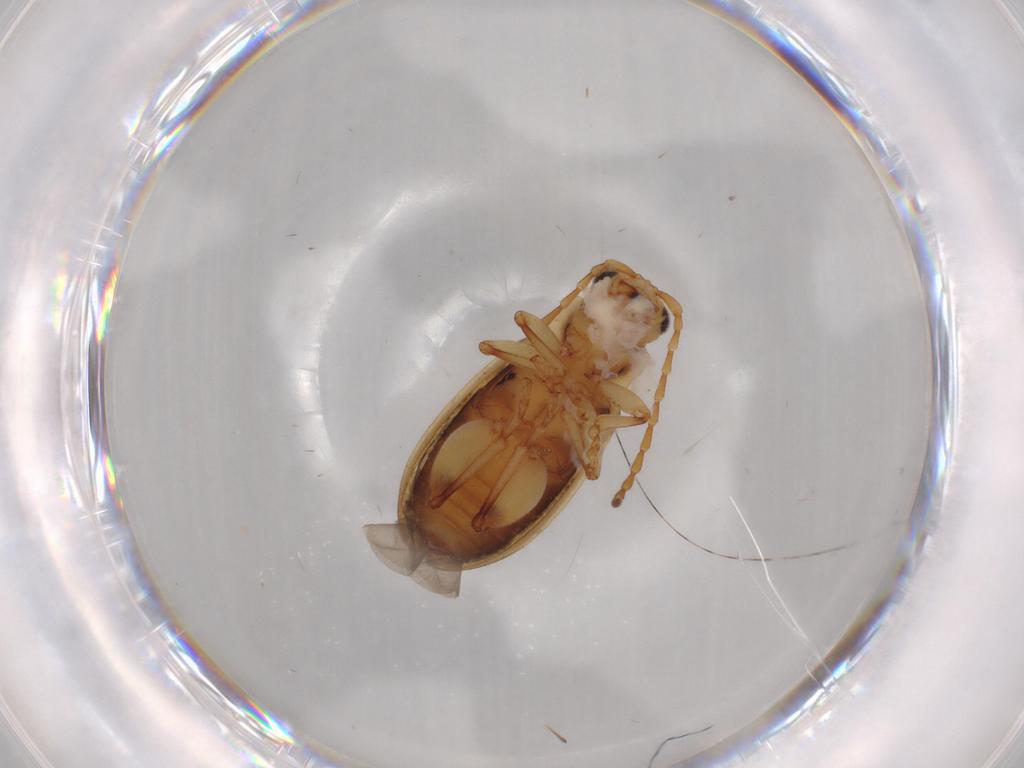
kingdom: Animalia
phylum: Arthropoda
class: Insecta
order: Coleoptera
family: Chrysomelidae
